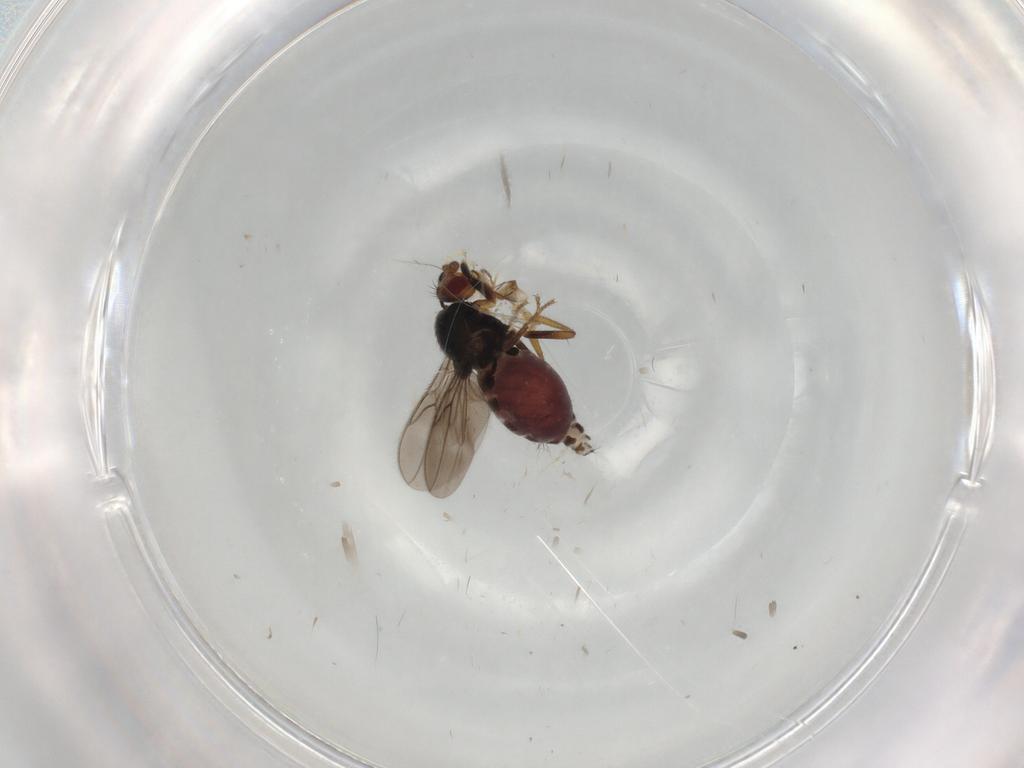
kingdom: Animalia
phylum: Arthropoda
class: Insecta
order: Diptera
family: Sphaeroceridae
